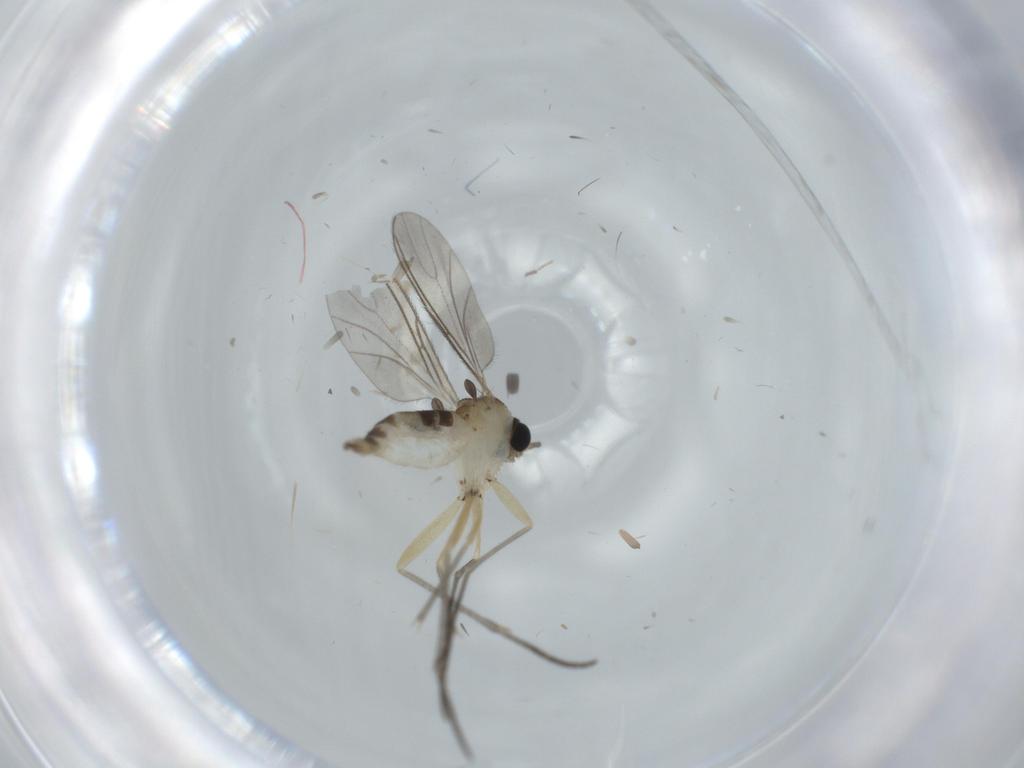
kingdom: Animalia
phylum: Arthropoda
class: Insecta
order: Diptera
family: Sciaridae
